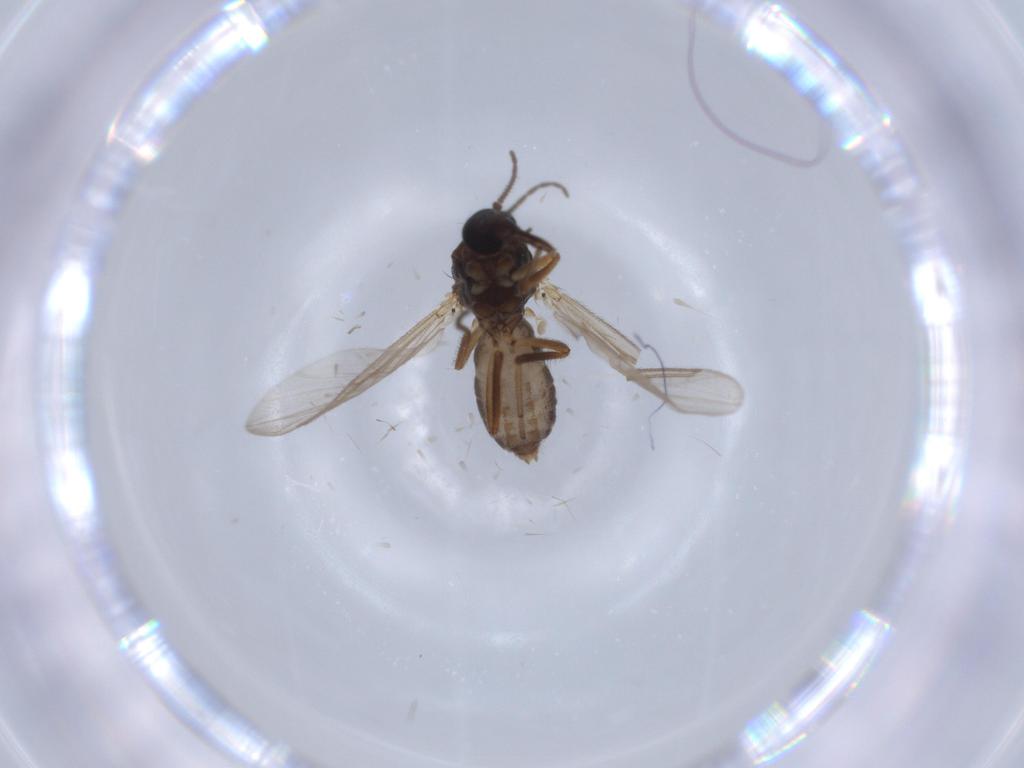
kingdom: Animalia
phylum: Arthropoda
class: Insecta
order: Diptera
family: Ceratopogonidae
